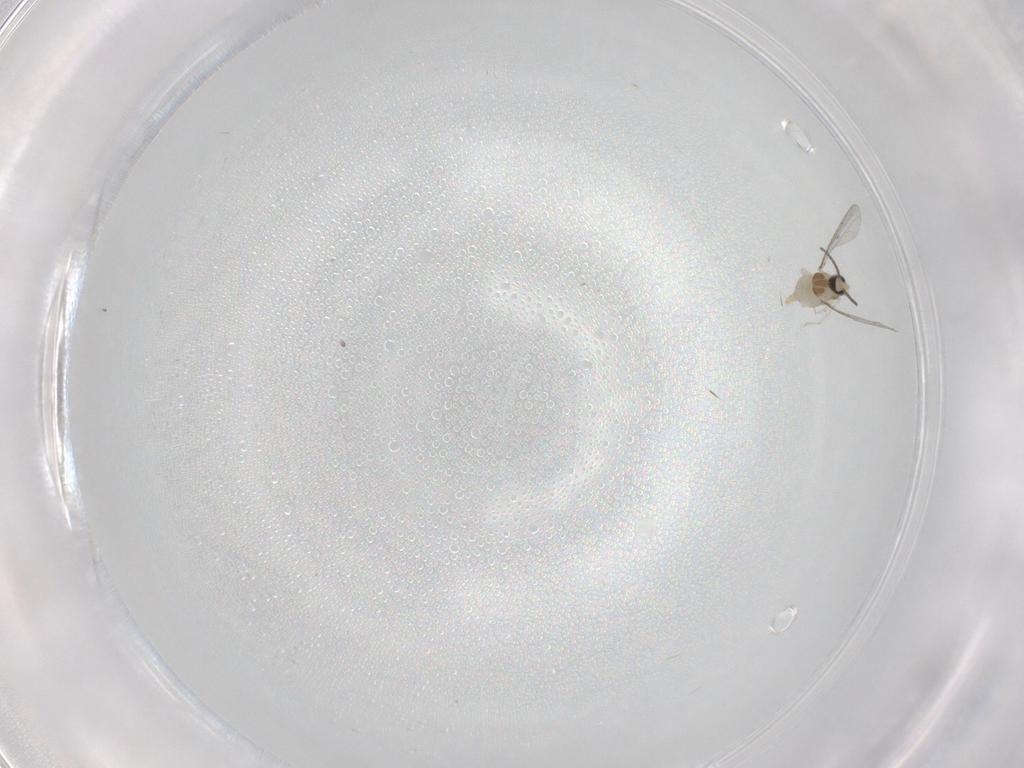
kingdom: Animalia
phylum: Arthropoda
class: Insecta
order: Diptera
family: Cecidomyiidae
